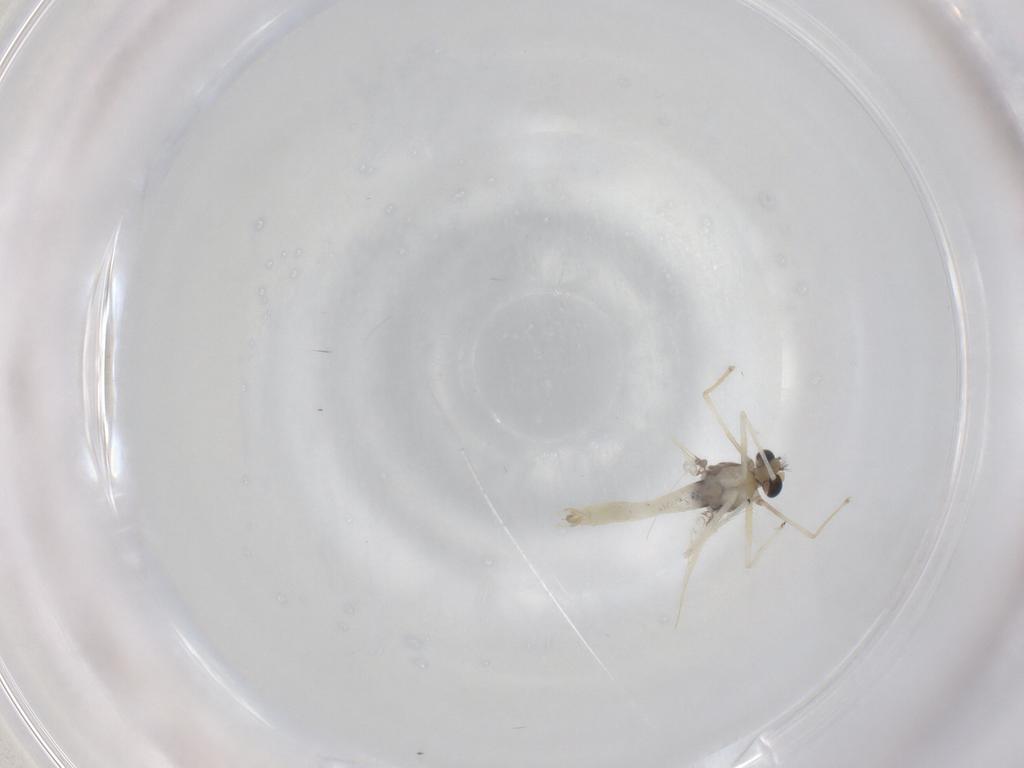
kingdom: Animalia
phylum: Arthropoda
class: Insecta
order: Diptera
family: Chironomidae
